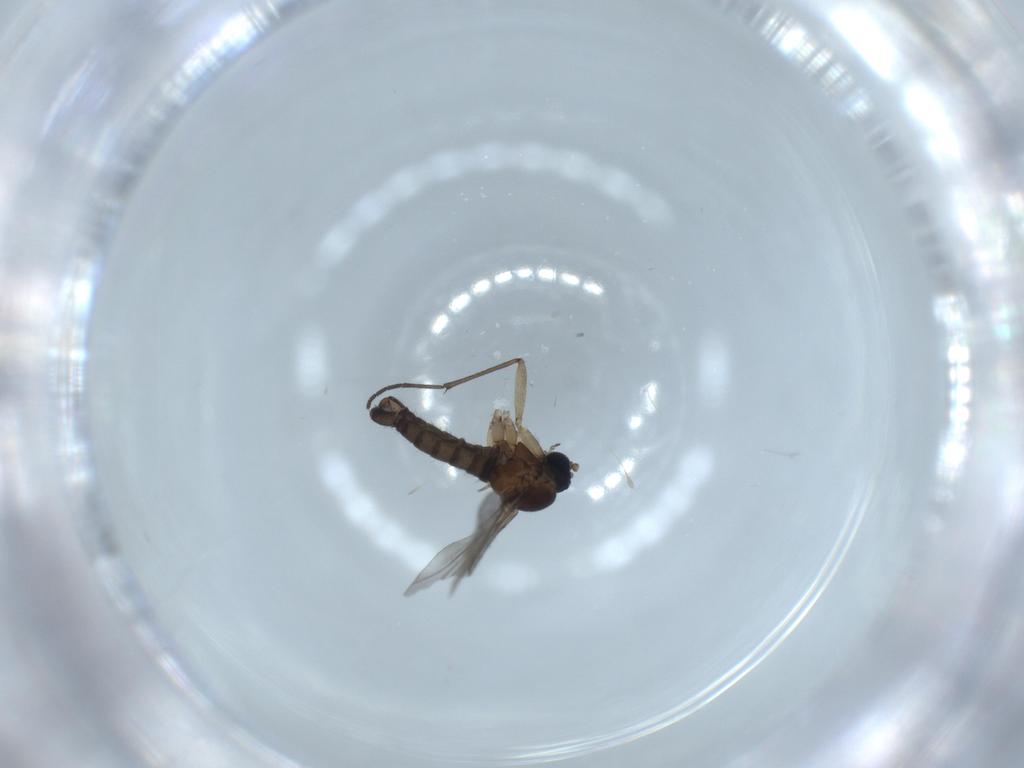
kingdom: Animalia
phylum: Arthropoda
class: Insecta
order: Diptera
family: Sciaridae
